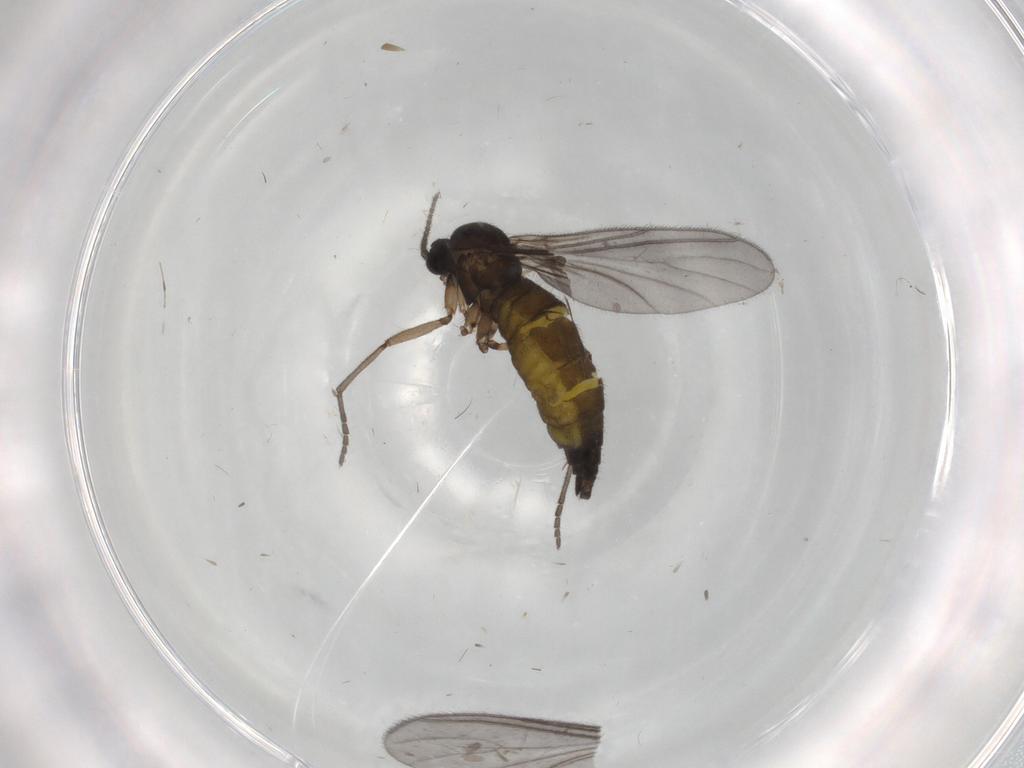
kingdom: Animalia
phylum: Arthropoda
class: Insecta
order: Diptera
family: Sciaridae
